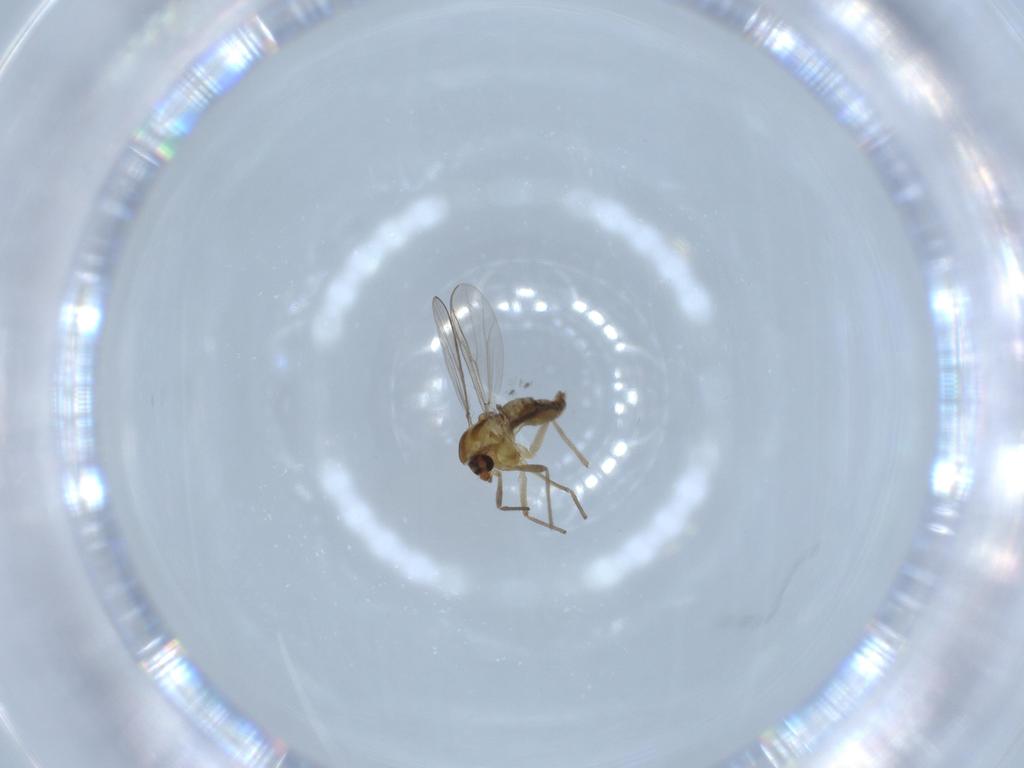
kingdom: Animalia
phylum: Arthropoda
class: Insecta
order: Diptera
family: Chironomidae
